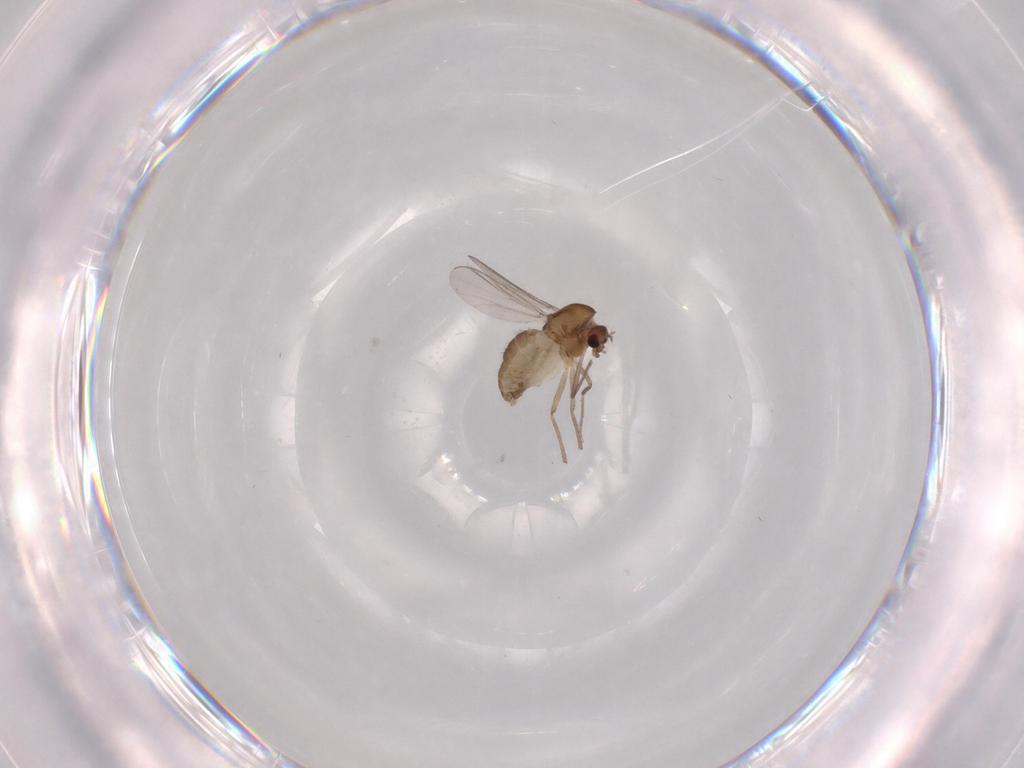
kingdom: Animalia
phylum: Arthropoda
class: Insecta
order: Diptera
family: Chironomidae
